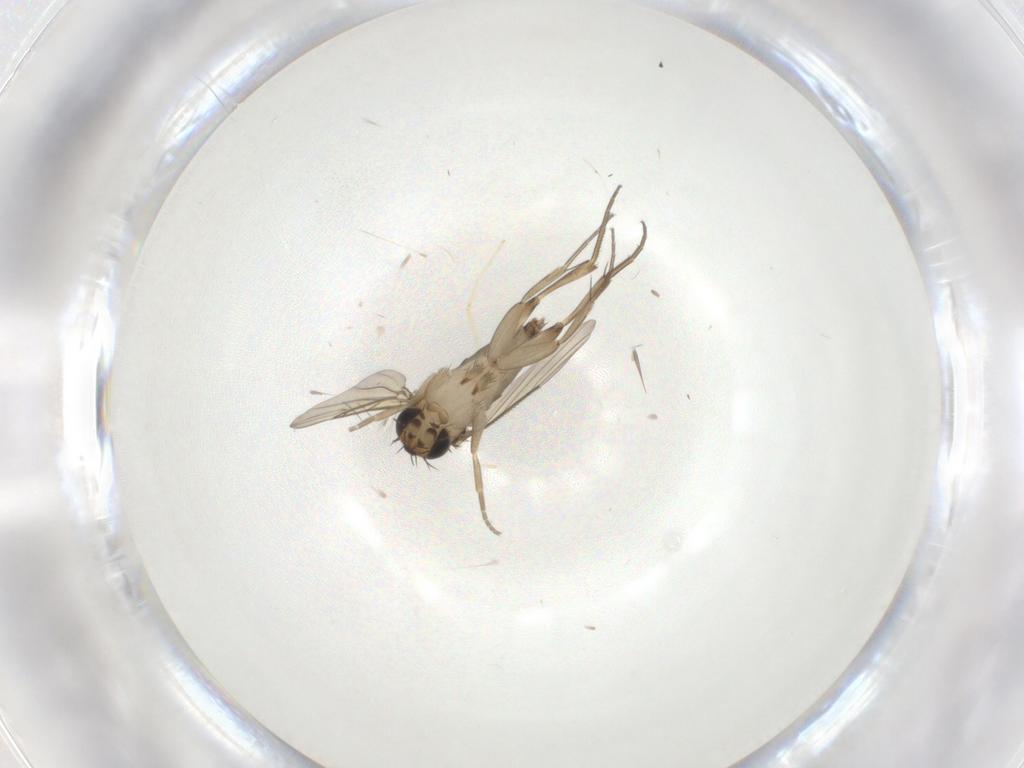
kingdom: Animalia
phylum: Arthropoda
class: Insecta
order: Diptera
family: Phoridae
